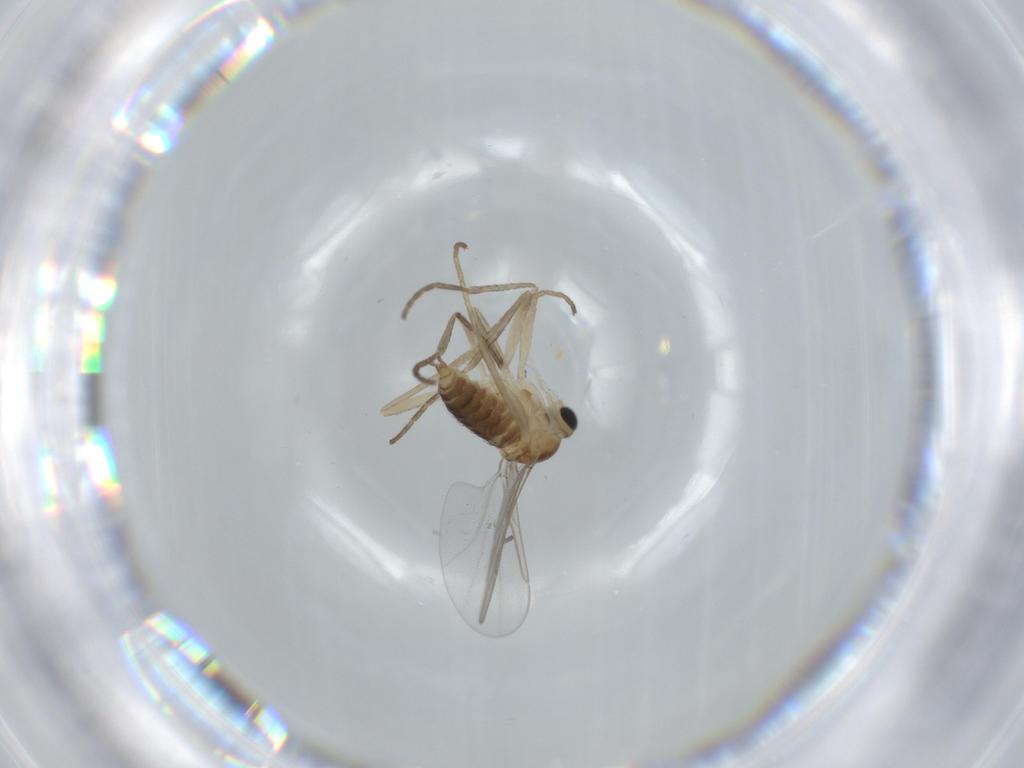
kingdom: Animalia
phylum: Arthropoda
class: Insecta
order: Diptera
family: Cecidomyiidae
